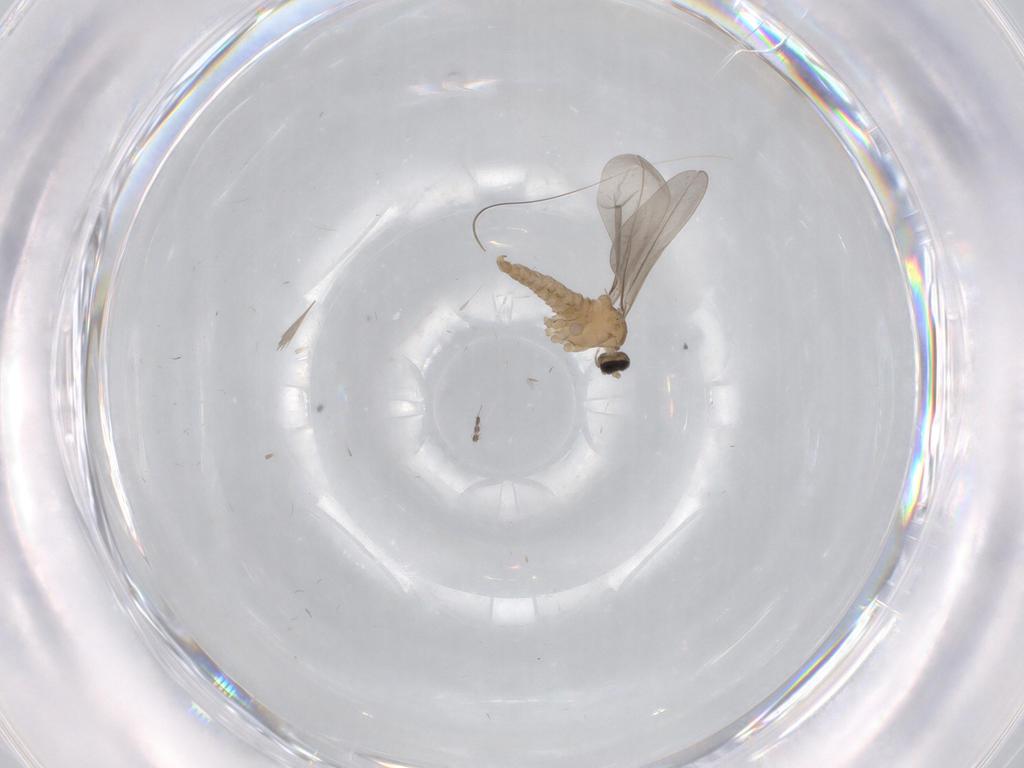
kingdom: Animalia
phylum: Arthropoda
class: Insecta
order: Diptera
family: Cecidomyiidae
